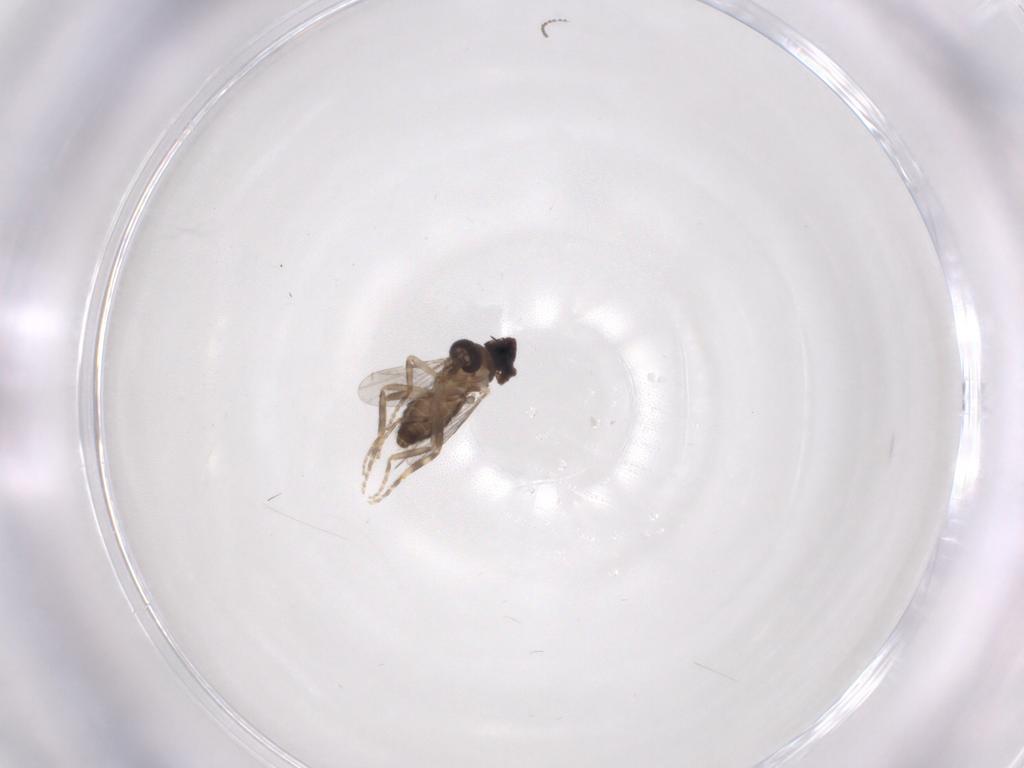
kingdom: Animalia
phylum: Arthropoda
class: Insecta
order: Diptera
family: Ceratopogonidae
